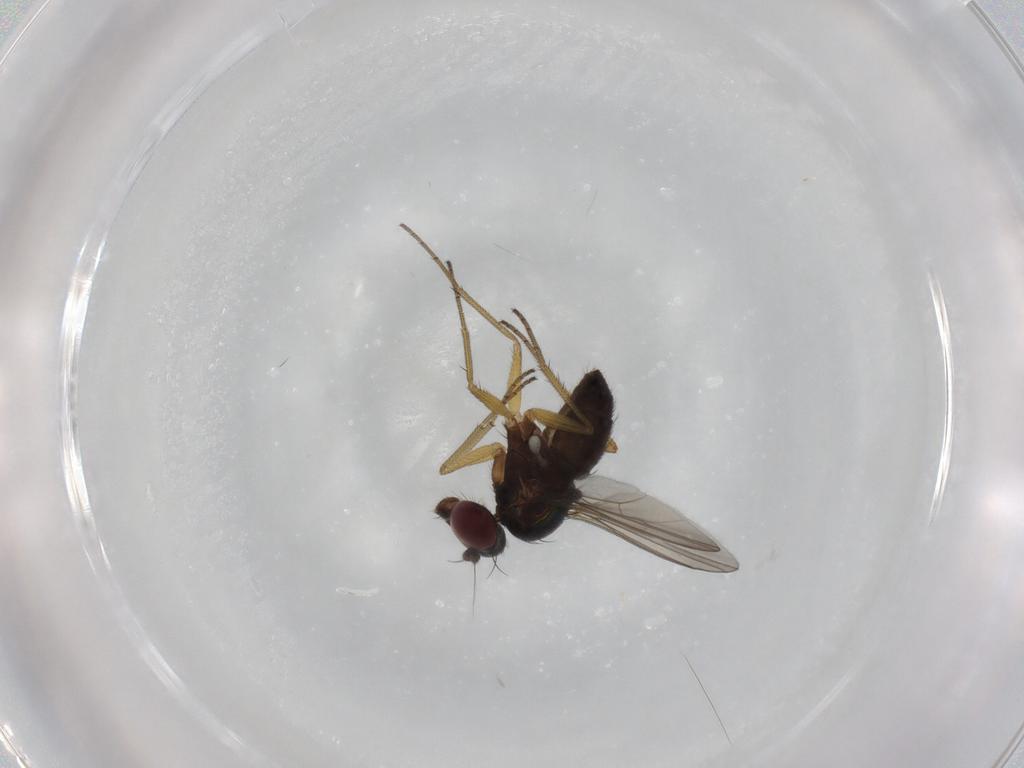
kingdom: Animalia
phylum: Arthropoda
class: Insecta
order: Diptera
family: Dolichopodidae
